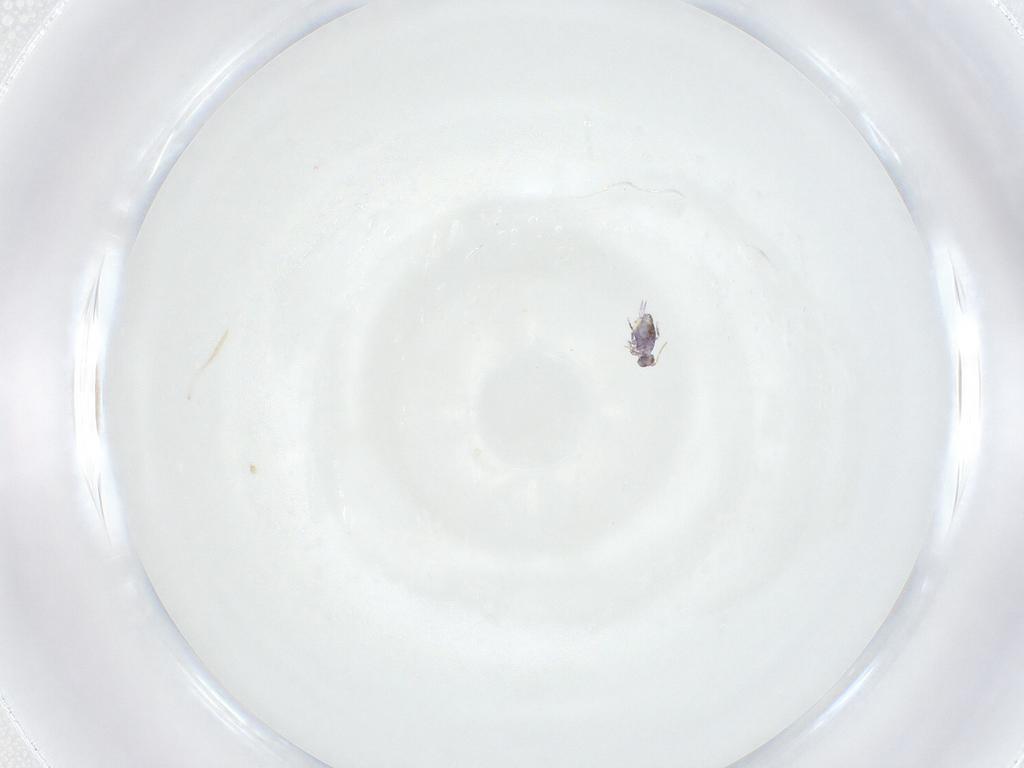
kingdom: Animalia
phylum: Arthropoda
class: Collembola
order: Symphypleona
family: Katiannidae
